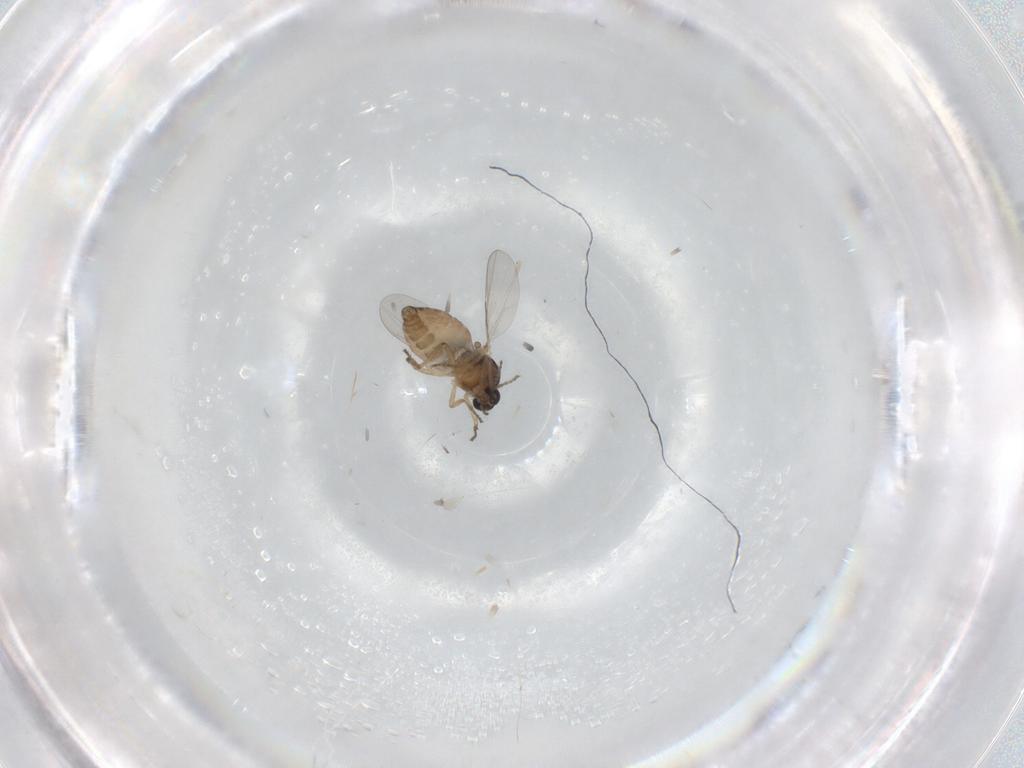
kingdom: Animalia
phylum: Arthropoda
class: Insecta
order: Diptera
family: Ceratopogonidae
